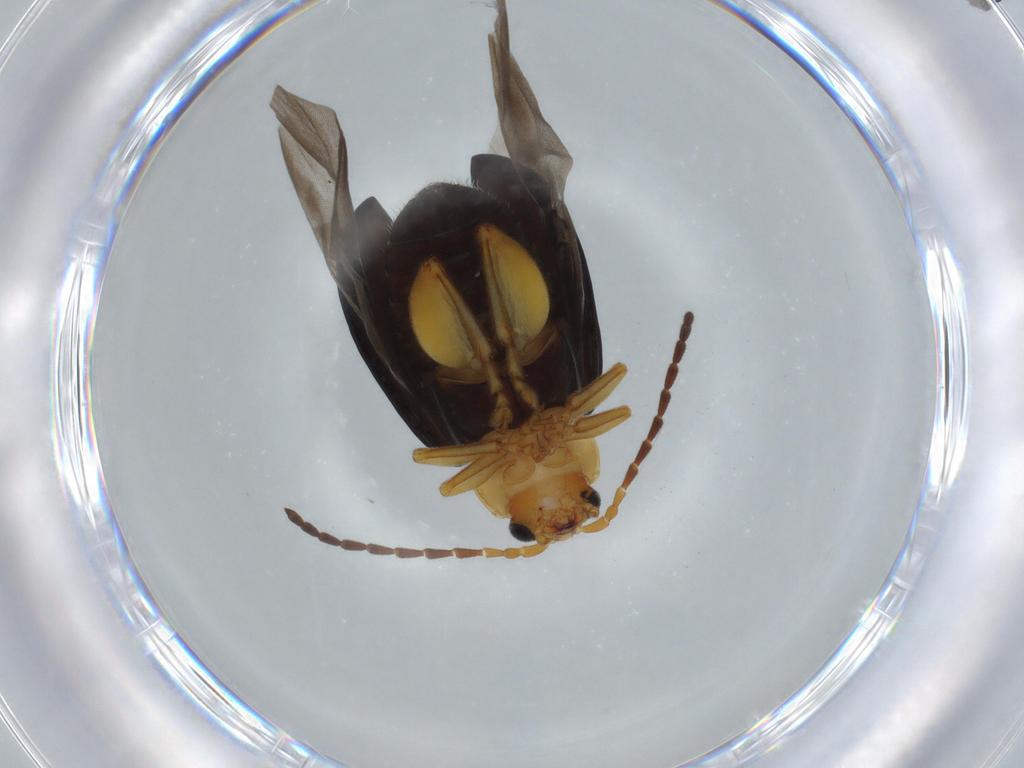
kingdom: Animalia
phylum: Arthropoda
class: Insecta
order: Coleoptera
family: Chrysomelidae
